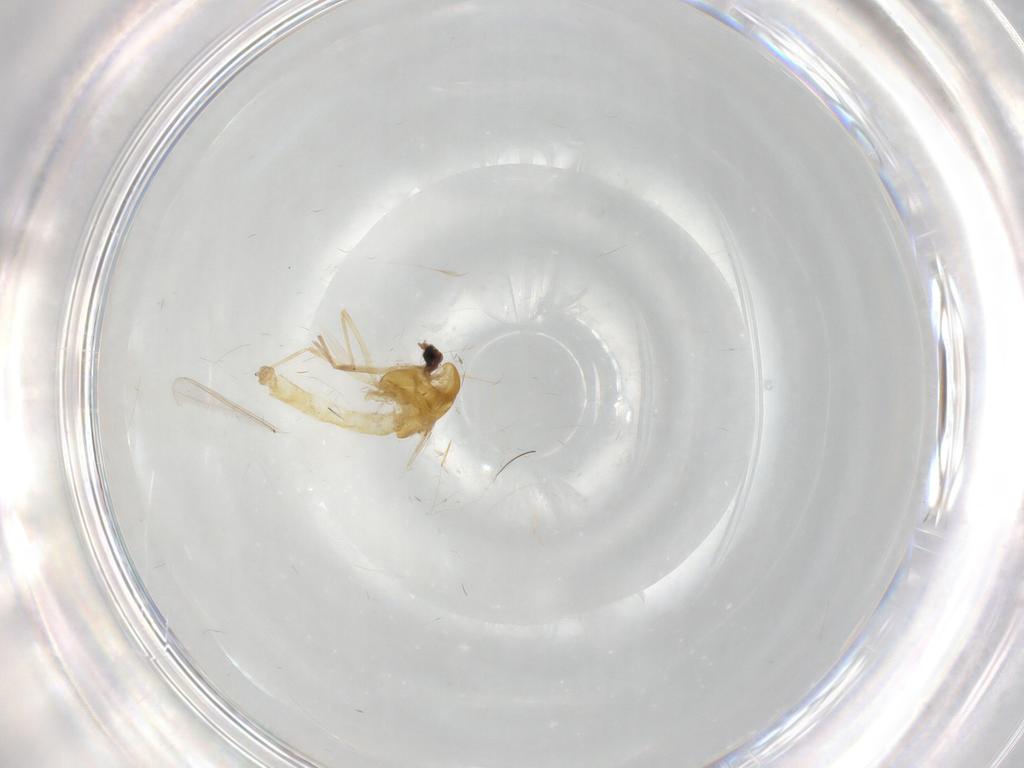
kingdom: Animalia
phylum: Arthropoda
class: Insecta
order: Diptera
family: Chironomidae
